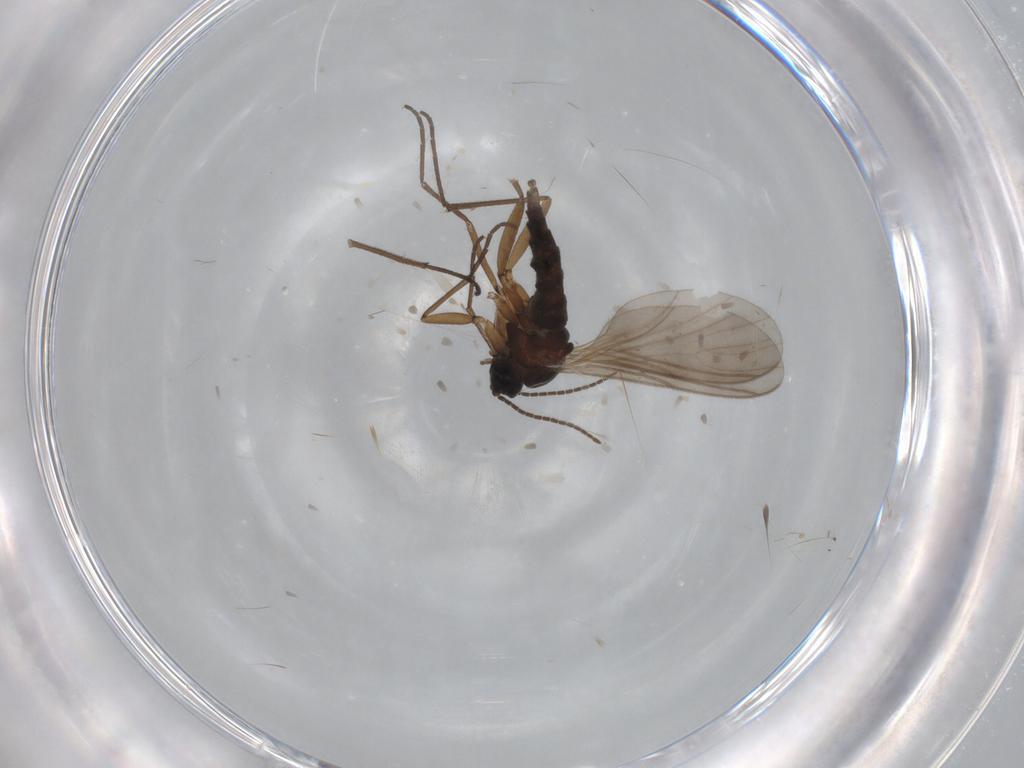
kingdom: Animalia
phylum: Arthropoda
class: Insecta
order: Diptera
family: Sciaridae
